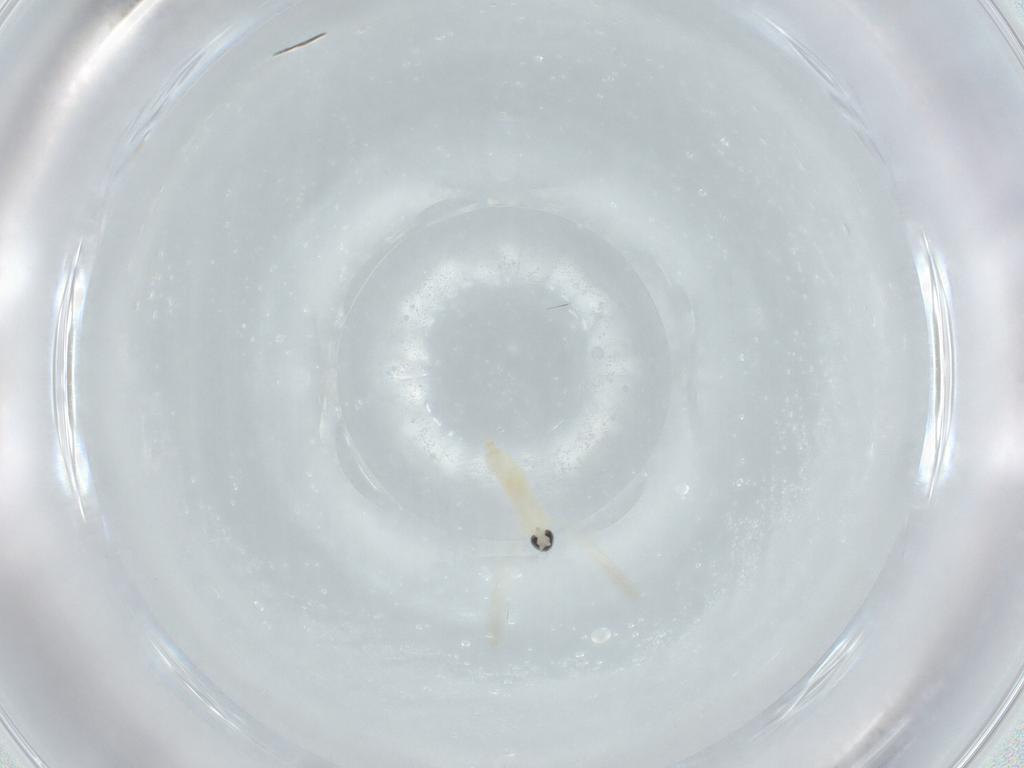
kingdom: Animalia
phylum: Arthropoda
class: Insecta
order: Diptera
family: Cecidomyiidae
